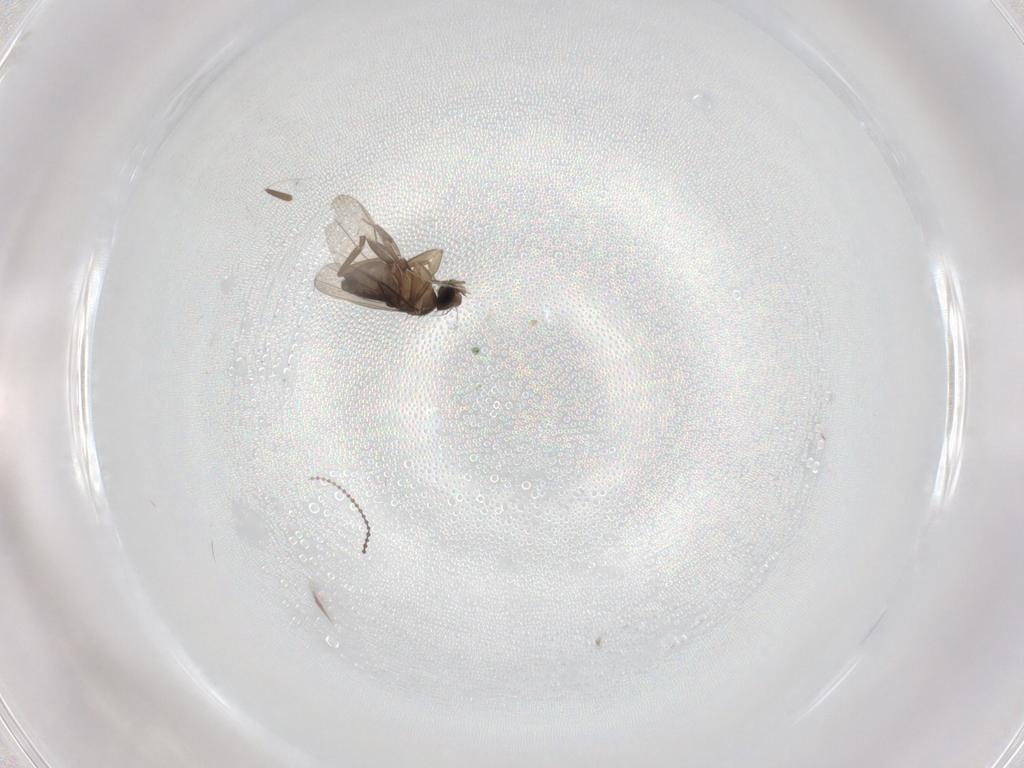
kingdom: Animalia
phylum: Arthropoda
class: Insecta
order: Diptera
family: Phoridae
